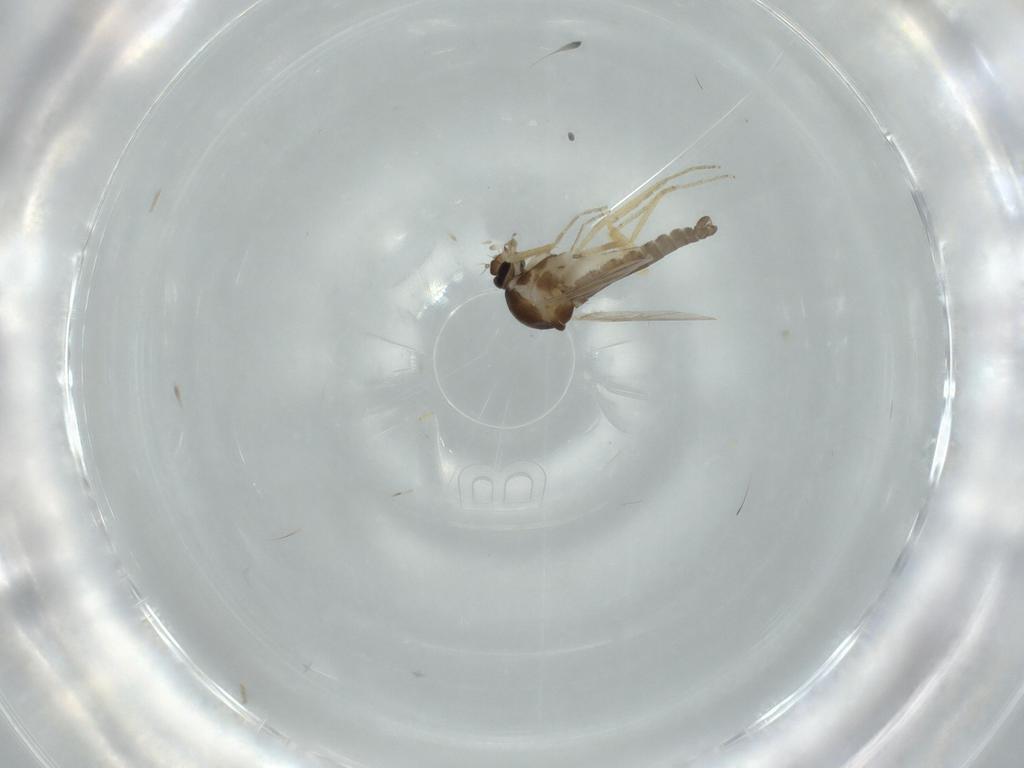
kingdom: Animalia
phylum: Arthropoda
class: Insecta
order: Diptera
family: Ceratopogonidae
